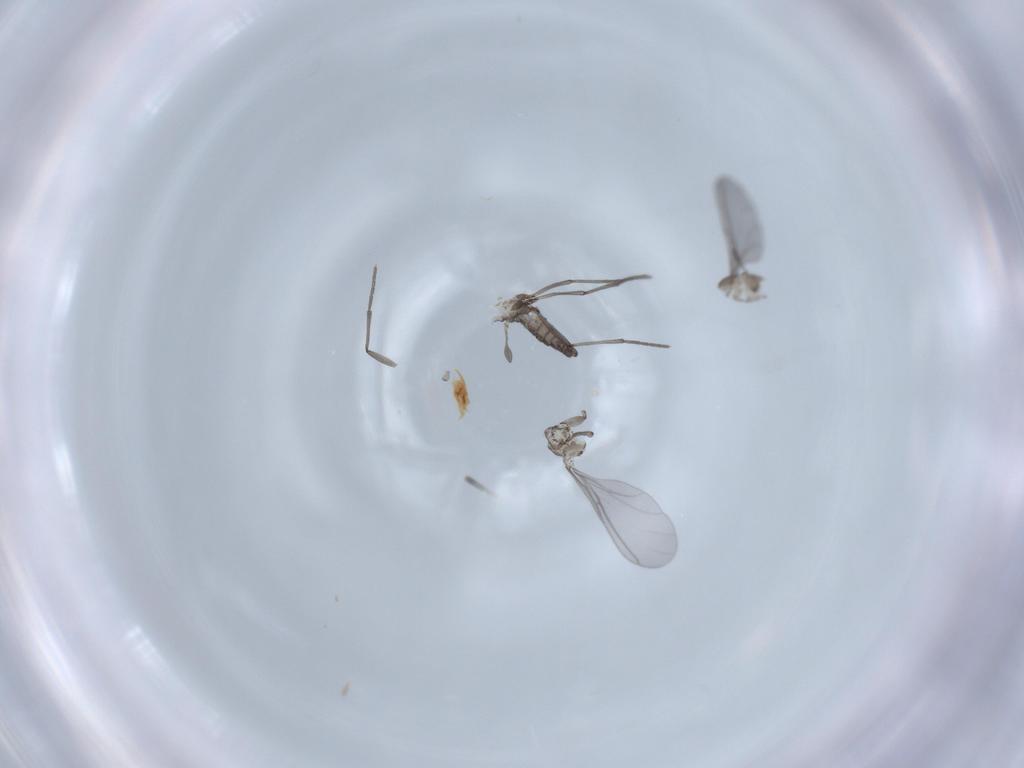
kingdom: Animalia
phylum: Arthropoda
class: Insecta
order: Diptera
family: Sciaridae
